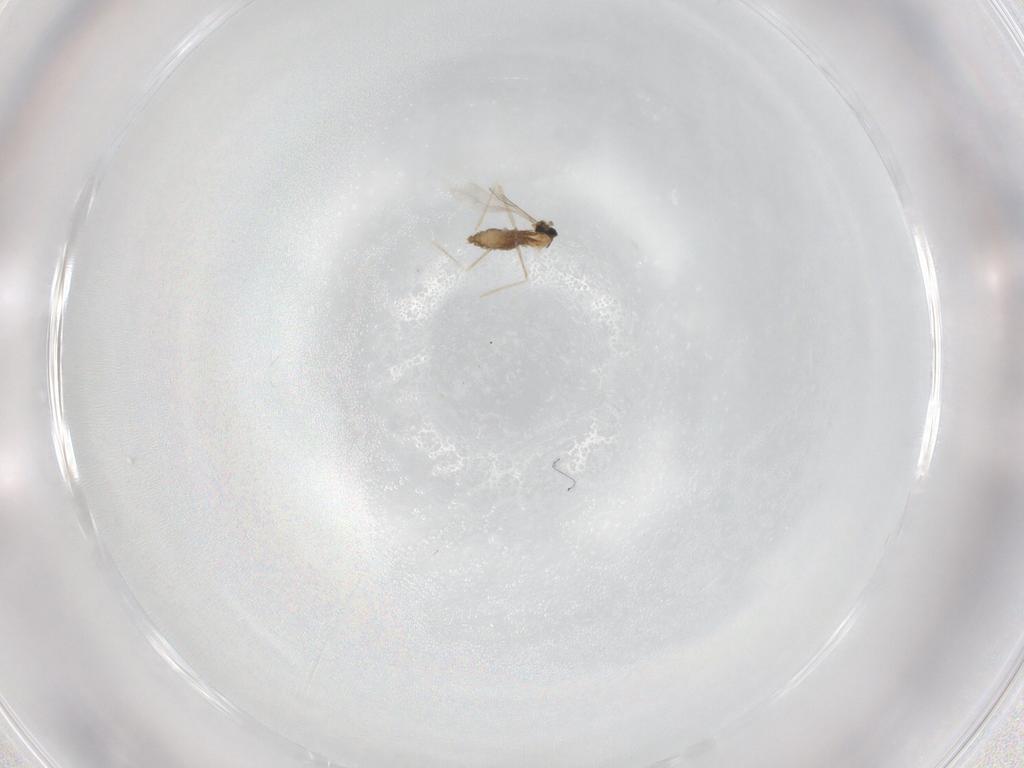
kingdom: Animalia
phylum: Arthropoda
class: Insecta
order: Diptera
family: Cecidomyiidae
